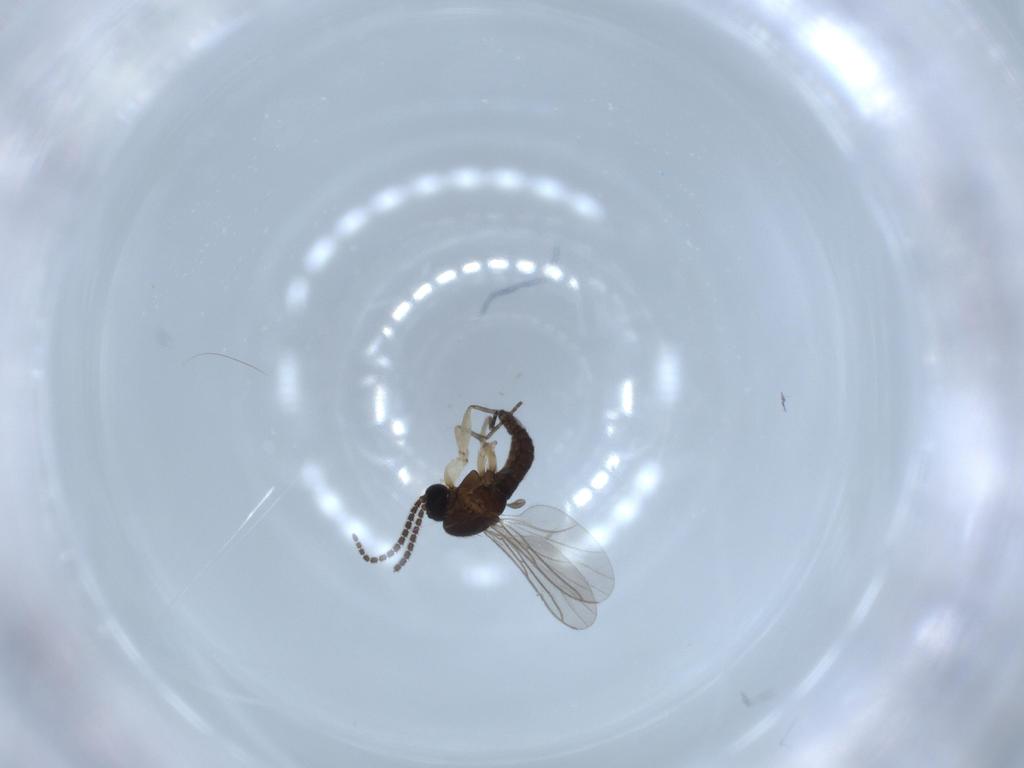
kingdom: Animalia
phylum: Arthropoda
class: Insecta
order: Diptera
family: Sciaridae
